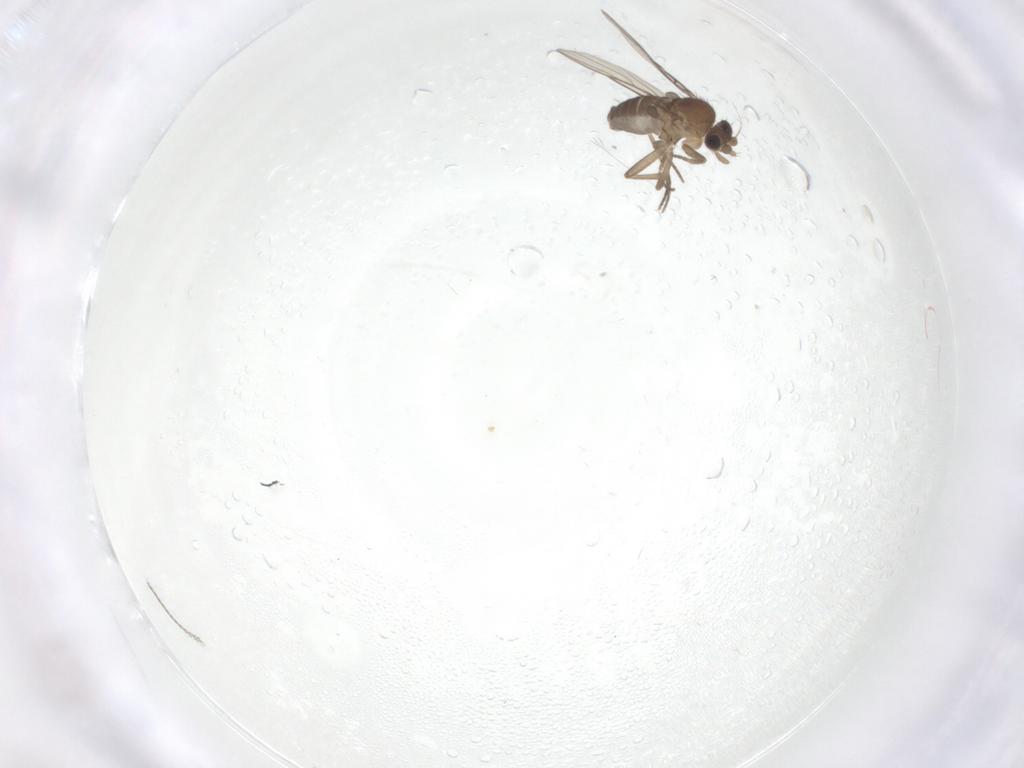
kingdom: Animalia
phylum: Arthropoda
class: Insecta
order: Diptera
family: Phoridae
